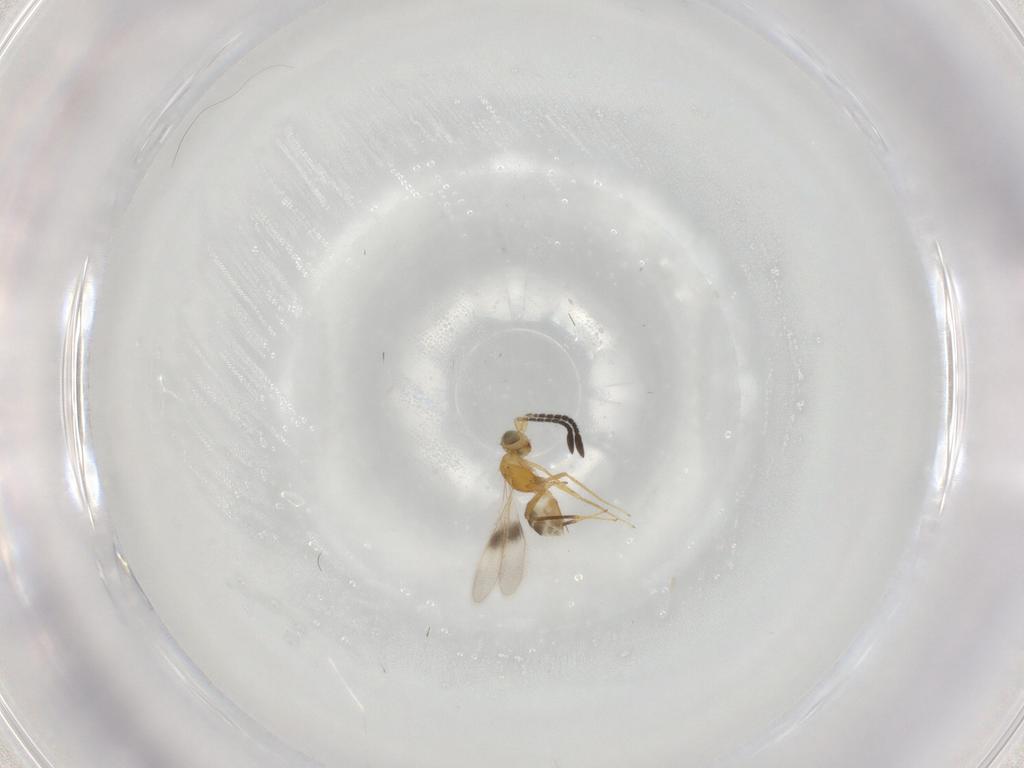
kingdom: Animalia
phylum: Arthropoda
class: Insecta
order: Hymenoptera
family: Mymaridae
